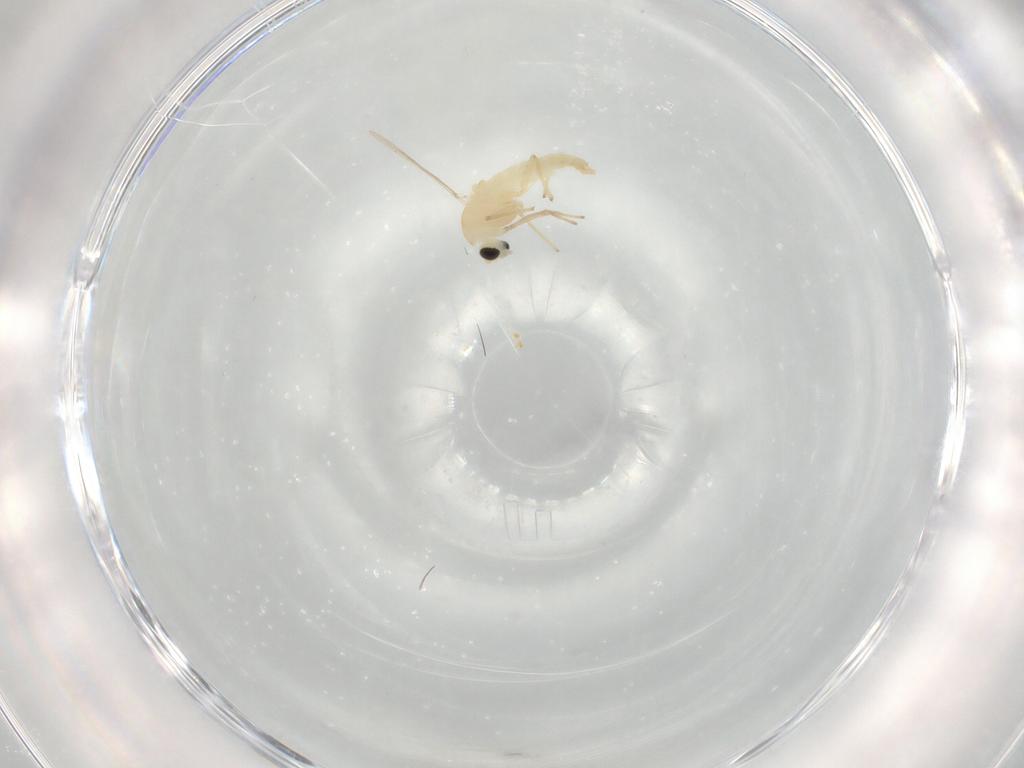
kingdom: Animalia
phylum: Arthropoda
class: Insecta
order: Diptera
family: Chironomidae
